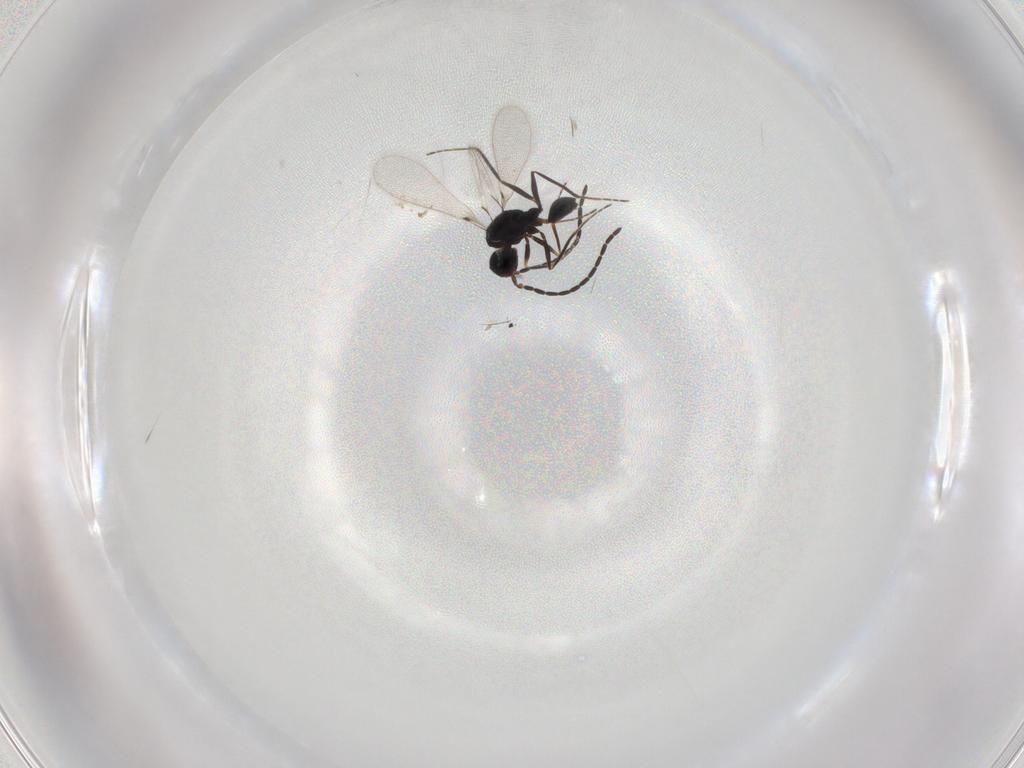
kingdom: Animalia
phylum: Arthropoda
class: Insecta
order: Hymenoptera
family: Mymaridae
